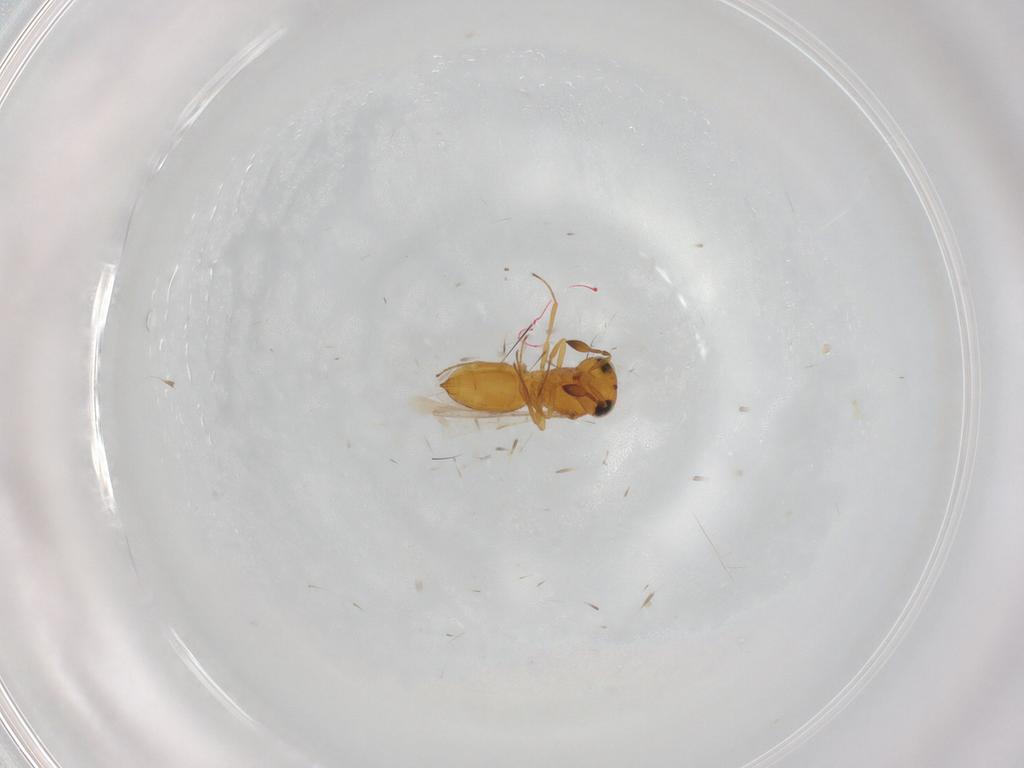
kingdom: Animalia
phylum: Arthropoda
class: Insecta
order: Hymenoptera
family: Scelionidae
